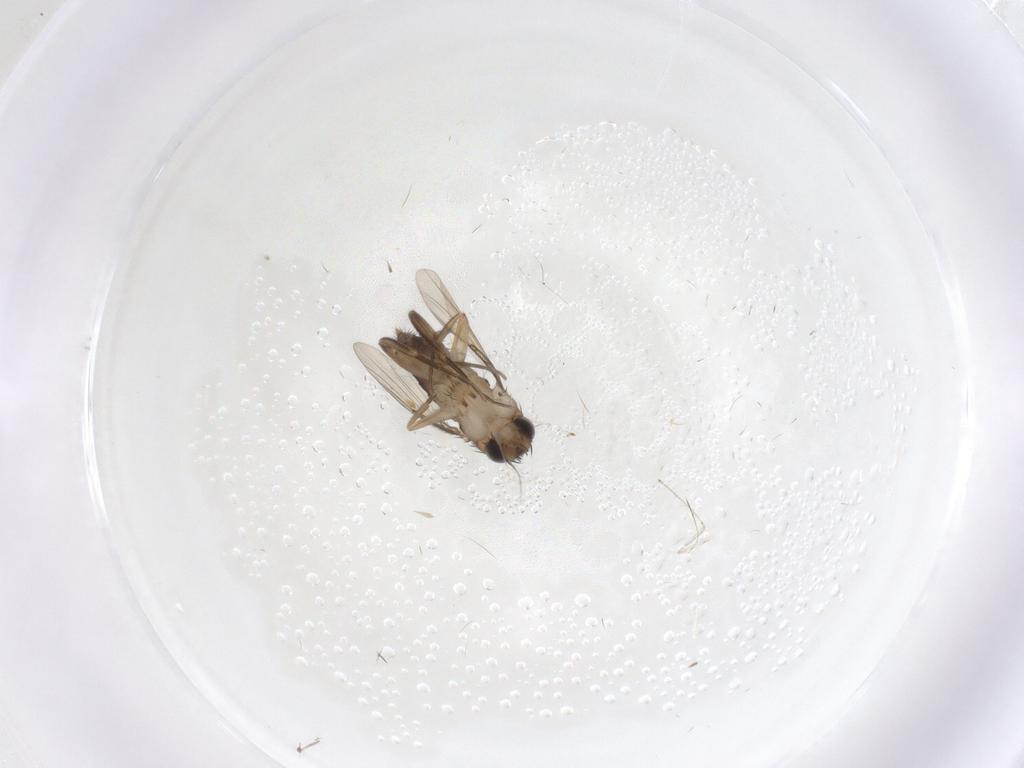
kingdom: Animalia
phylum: Arthropoda
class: Insecta
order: Diptera
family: Phoridae
